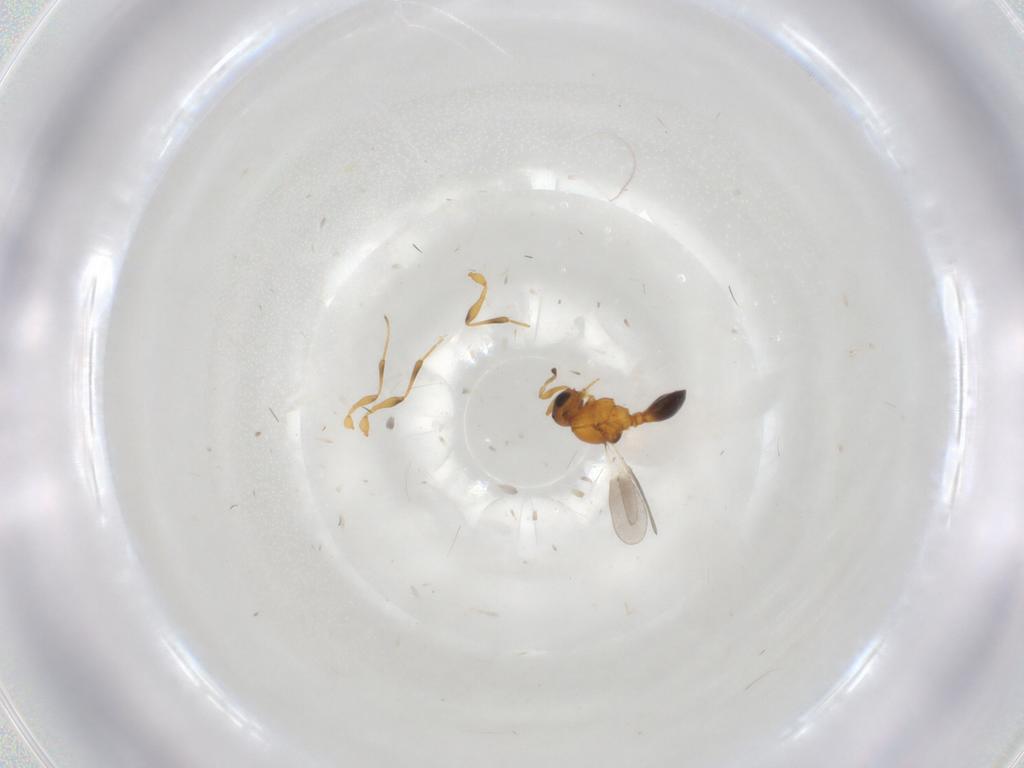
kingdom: Animalia
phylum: Arthropoda
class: Insecta
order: Hymenoptera
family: Platygastridae
